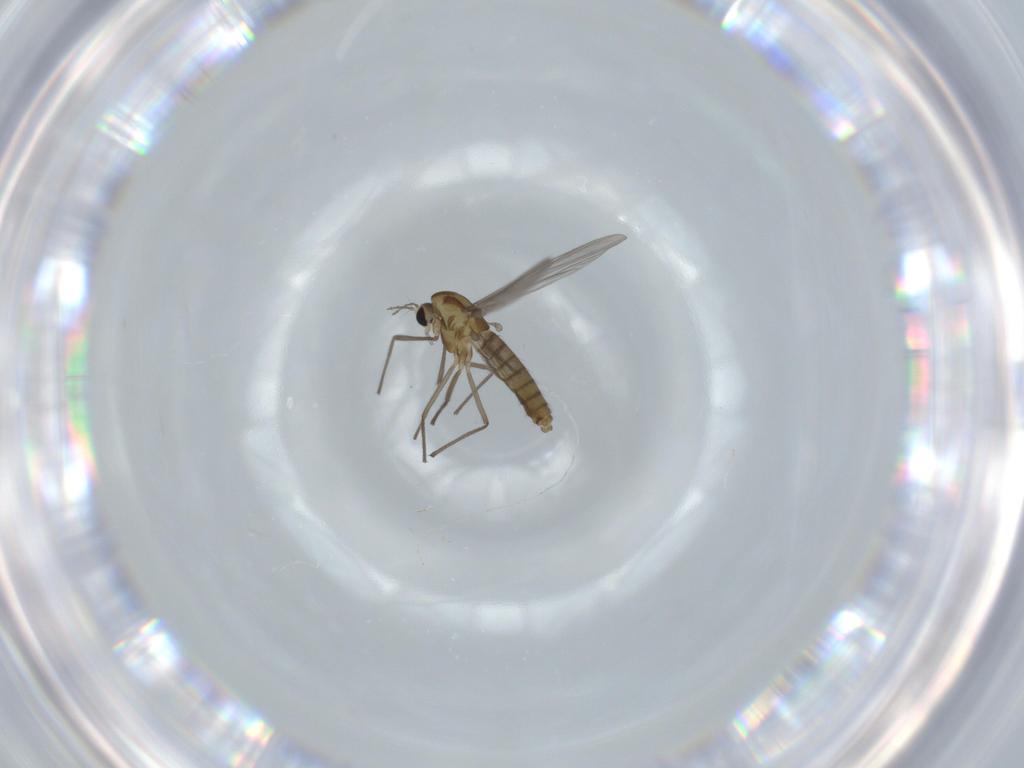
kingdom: Animalia
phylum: Arthropoda
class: Insecta
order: Diptera
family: Chironomidae
